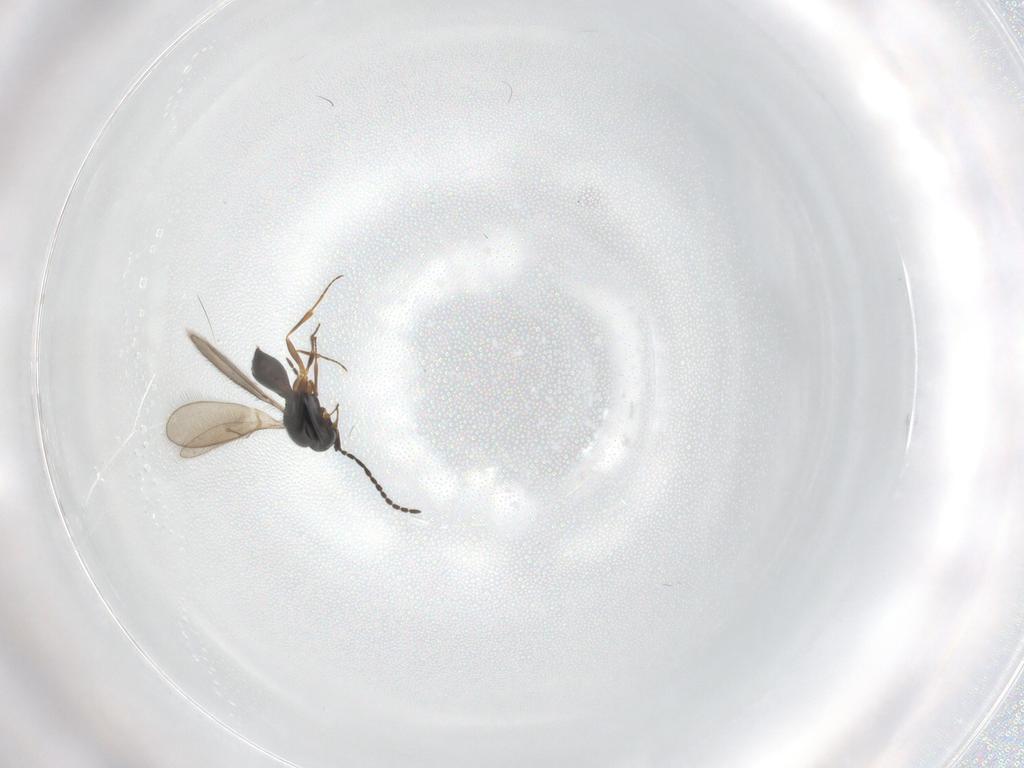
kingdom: Animalia
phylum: Arthropoda
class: Insecta
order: Hymenoptera
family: Scelionidae
